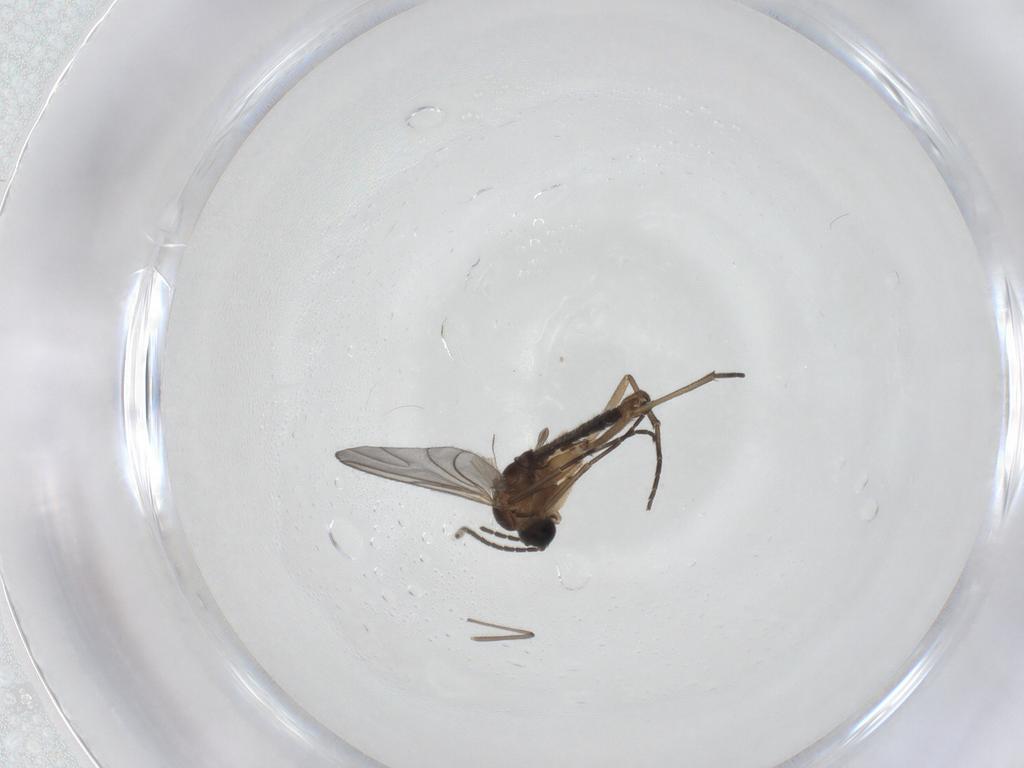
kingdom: Animalia
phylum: Arthropoda
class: Insecta
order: Diptera
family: Sciaridae
